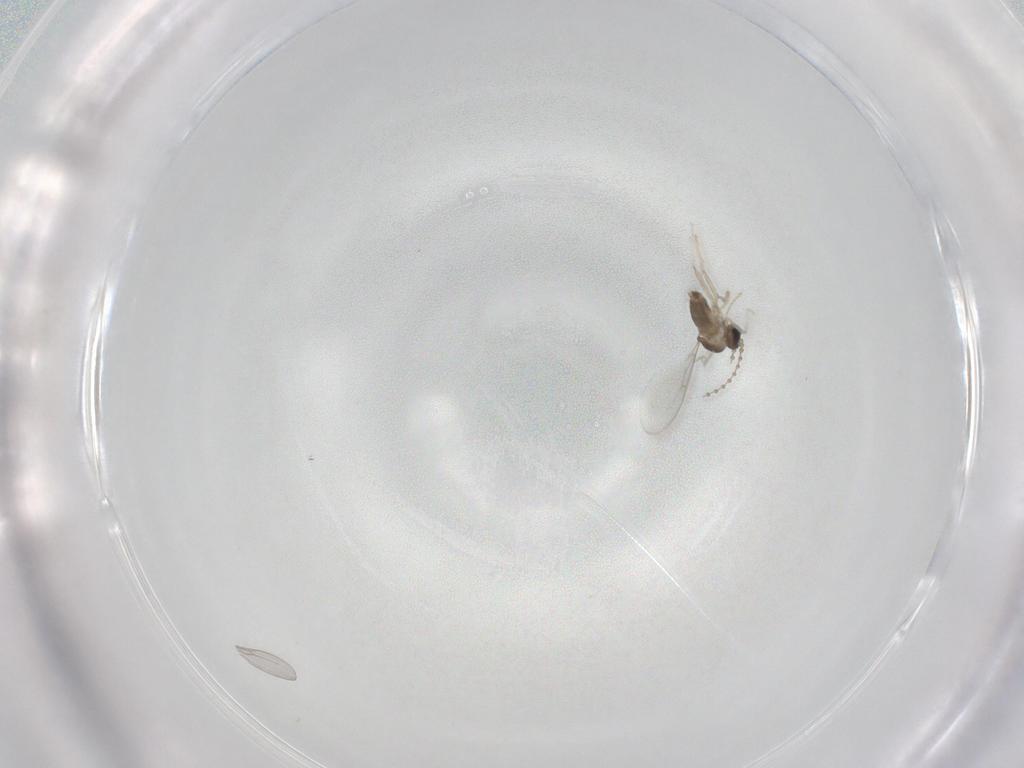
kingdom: Animalia
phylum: Arthropoda
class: Insecta
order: Diptera
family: Cecidomyiidae
